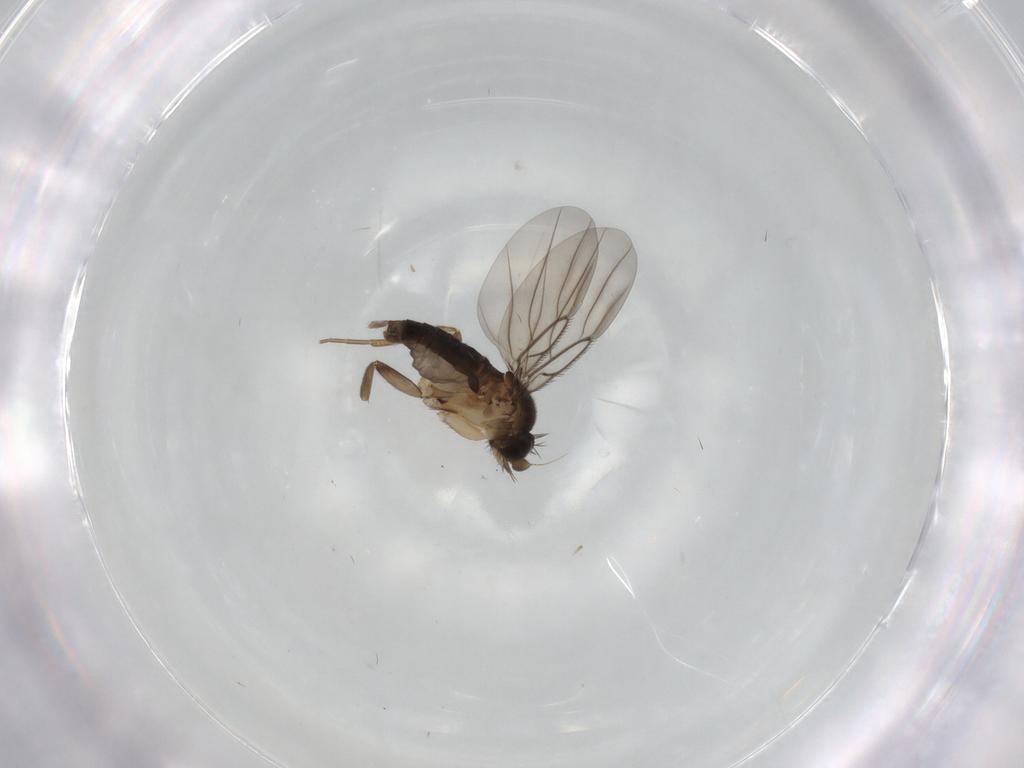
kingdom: Animalia
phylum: Arthropoda
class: Insecta
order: Diptera
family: Phoridae
